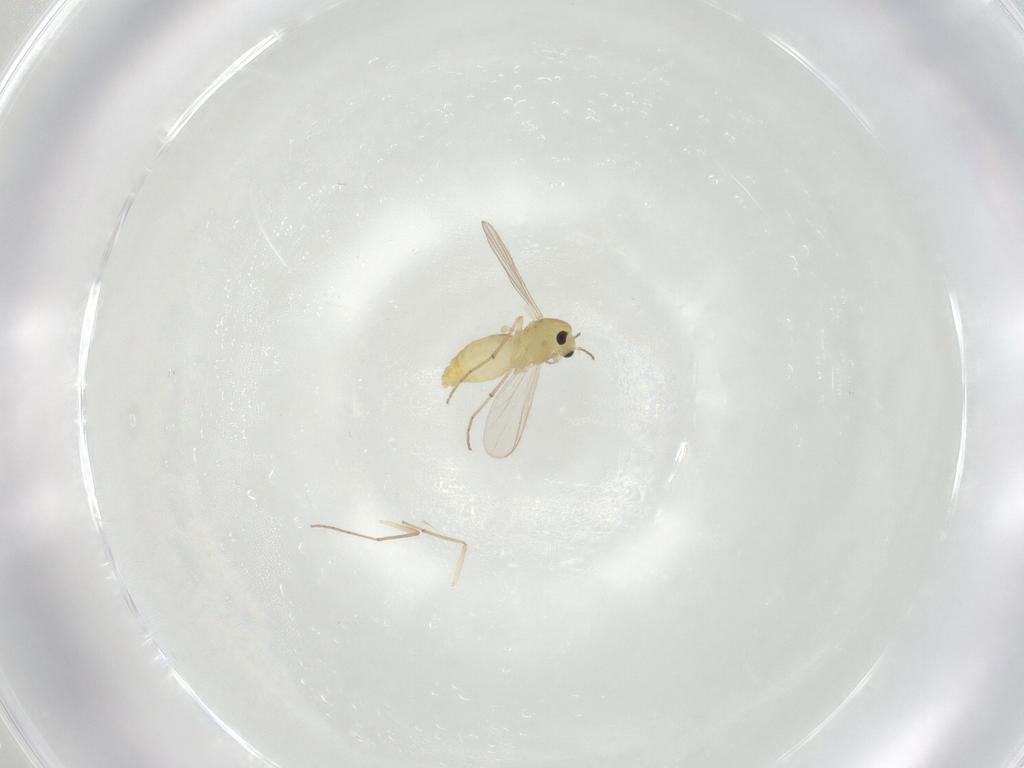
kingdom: Animalia
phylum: Arthropoda
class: Insecta
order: Diptera
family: Chironomidae
